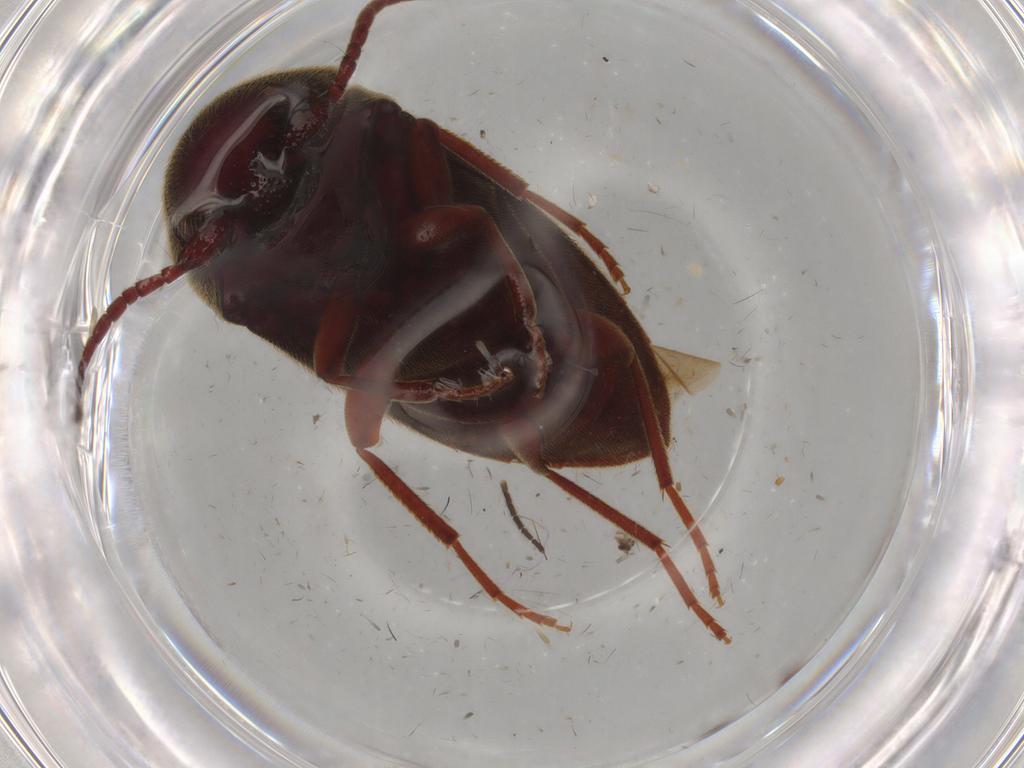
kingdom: Animalia
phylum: Arthropoda
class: Insecta
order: Coleoptera
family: Eucnemidae
